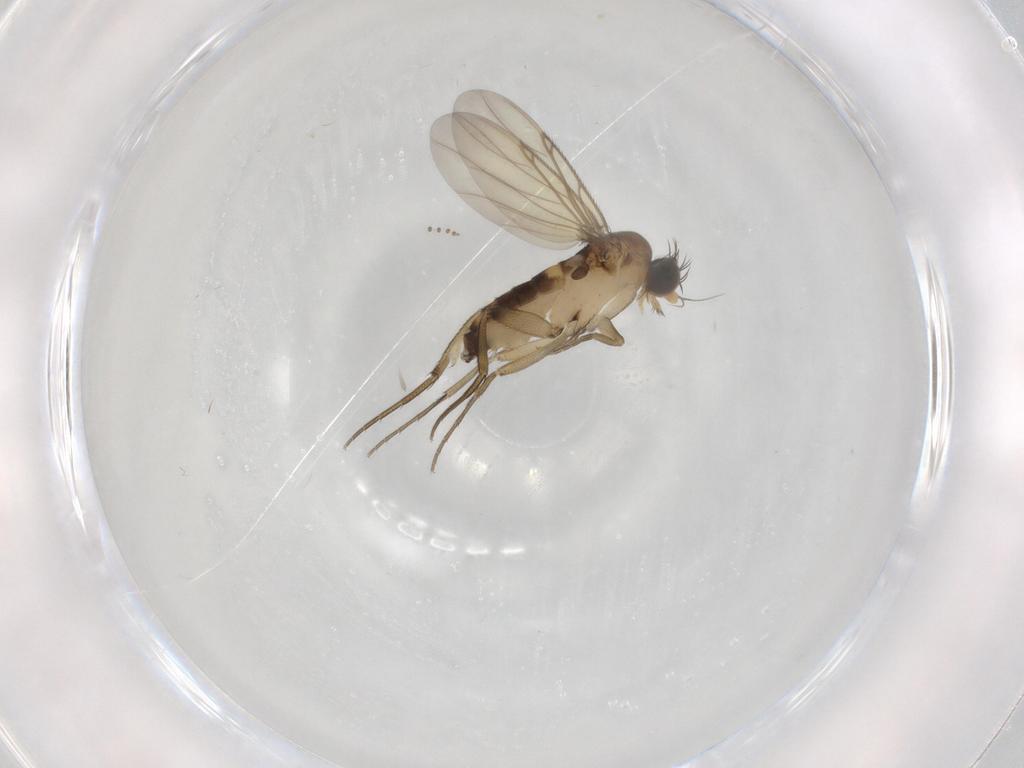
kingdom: Animalia
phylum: Arthropoda
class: Insecta
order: Diptera
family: Phoridae
